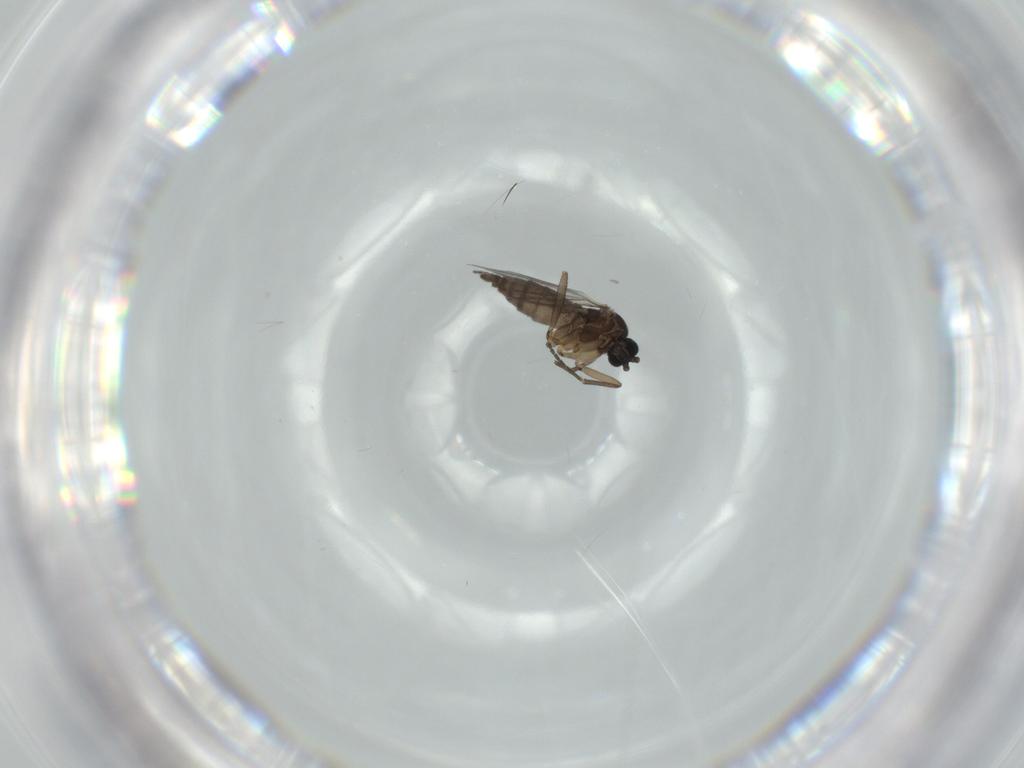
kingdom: Animalia
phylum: Arthropoda
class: Insecta
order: Diptera
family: Sciaridae
